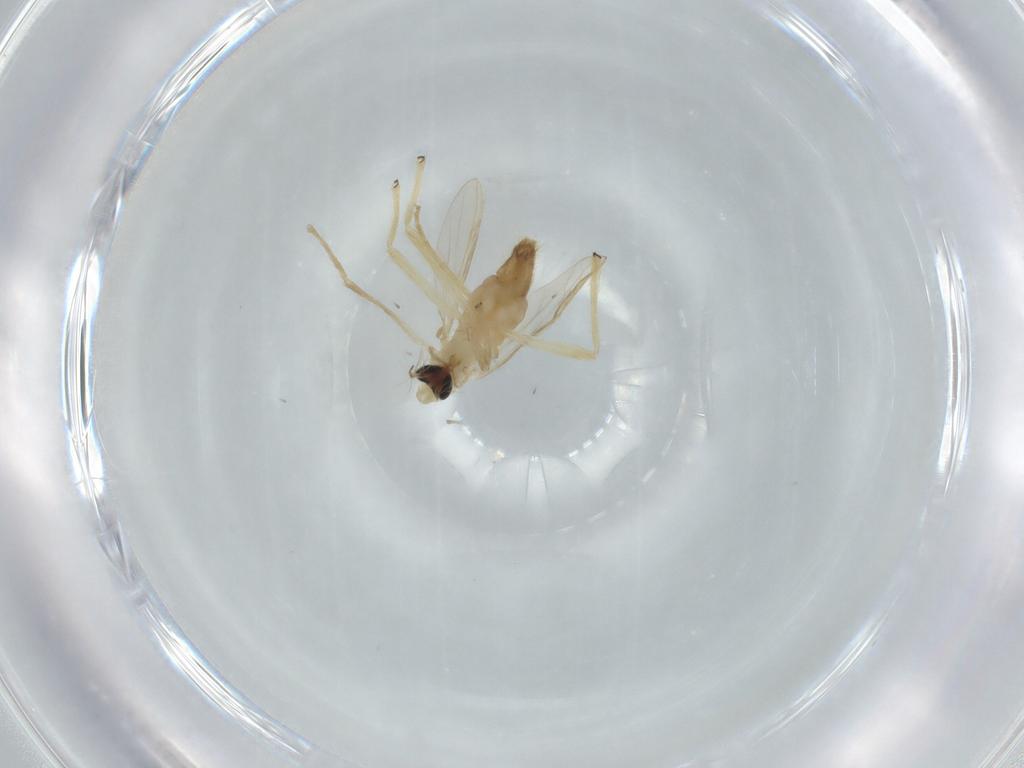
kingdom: Animalia
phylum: Arthropoda
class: Insecta
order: Diptera
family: Chironomidae
